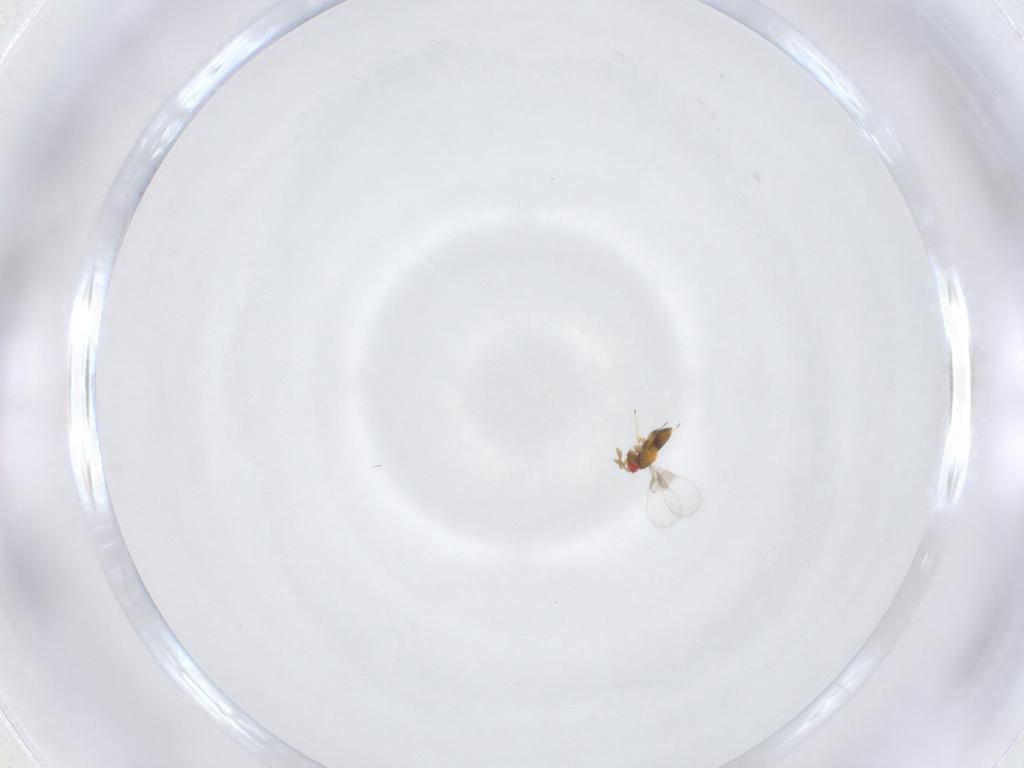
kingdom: Animalia
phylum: Arthropoda
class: Insecta
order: Hymenoptera
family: Trichogrammatidae
